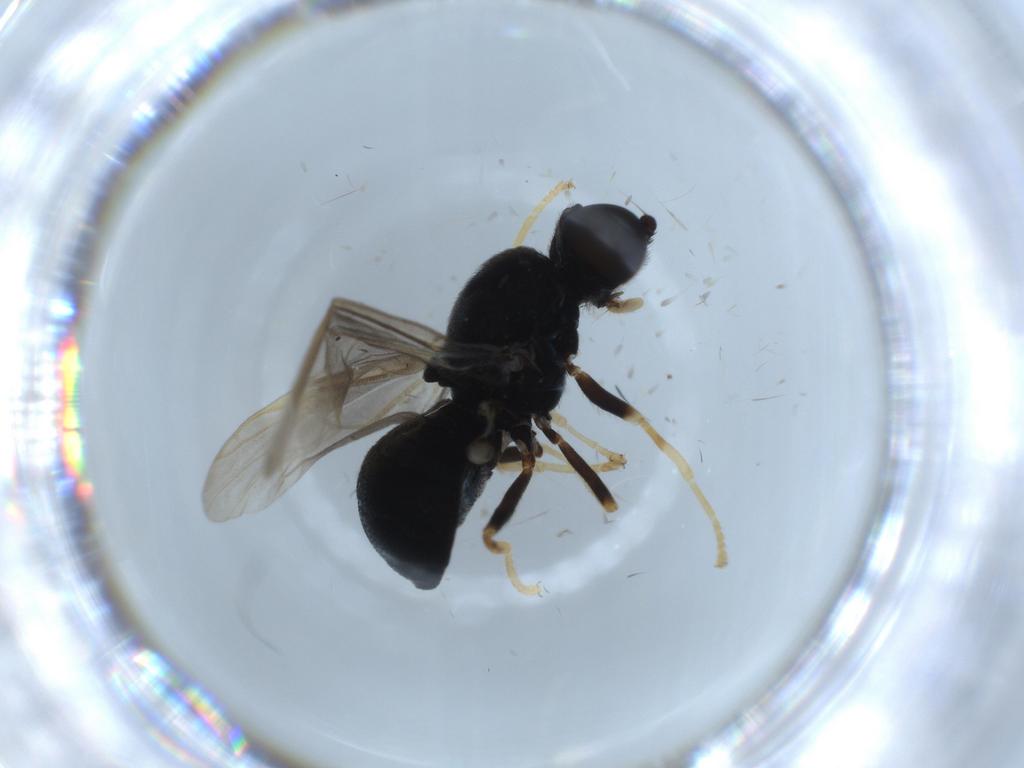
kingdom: Animalia
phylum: Arthropoda
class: Insecta
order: Diptera
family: Stratiomyidae
